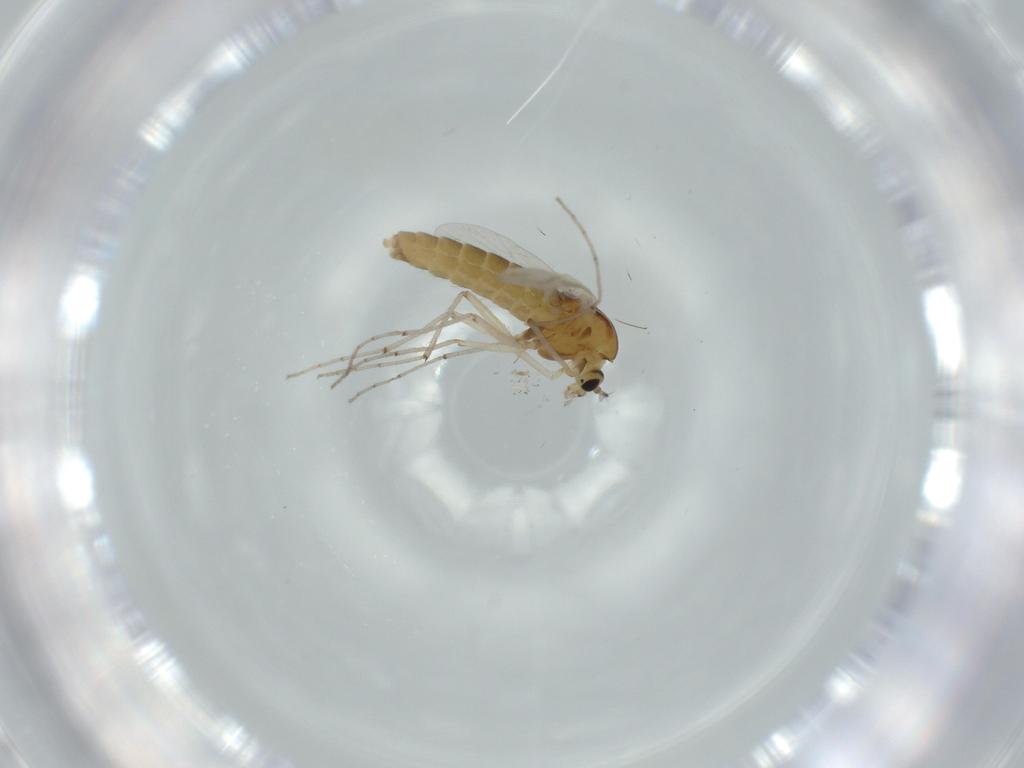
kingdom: Animalia
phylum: Arthropoda
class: Insecta
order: Diptera
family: Chironomidae
